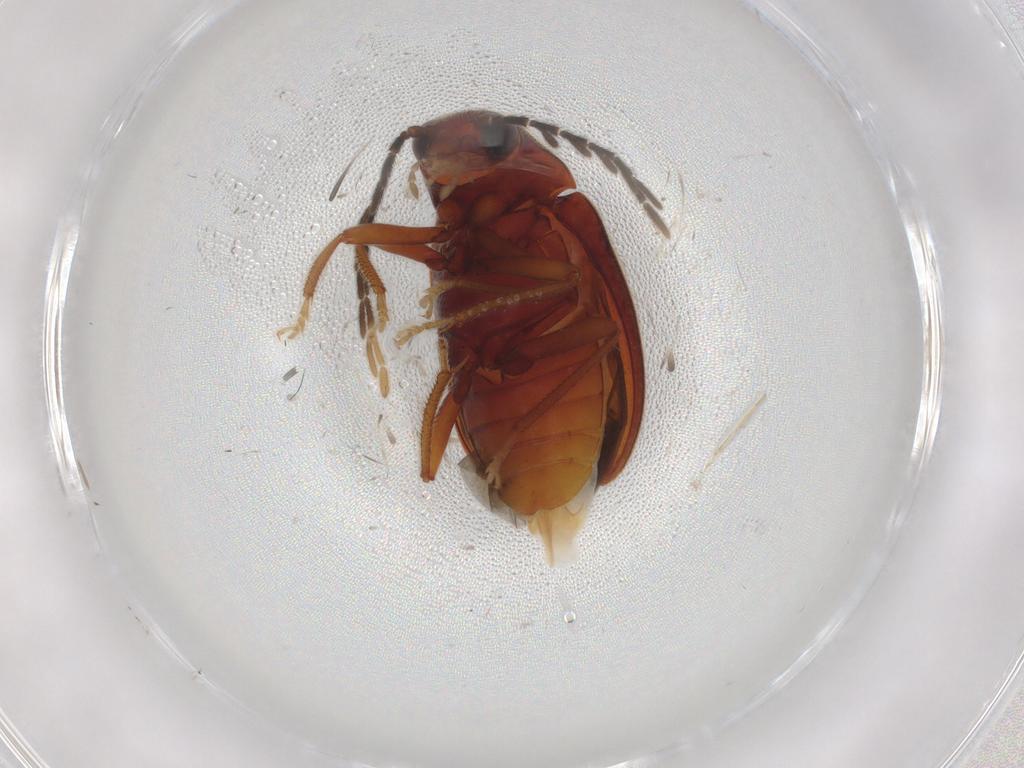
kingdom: Animalia
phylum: Arthropoda
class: Insecta
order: Coleoptera
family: Ptilodactylidae
